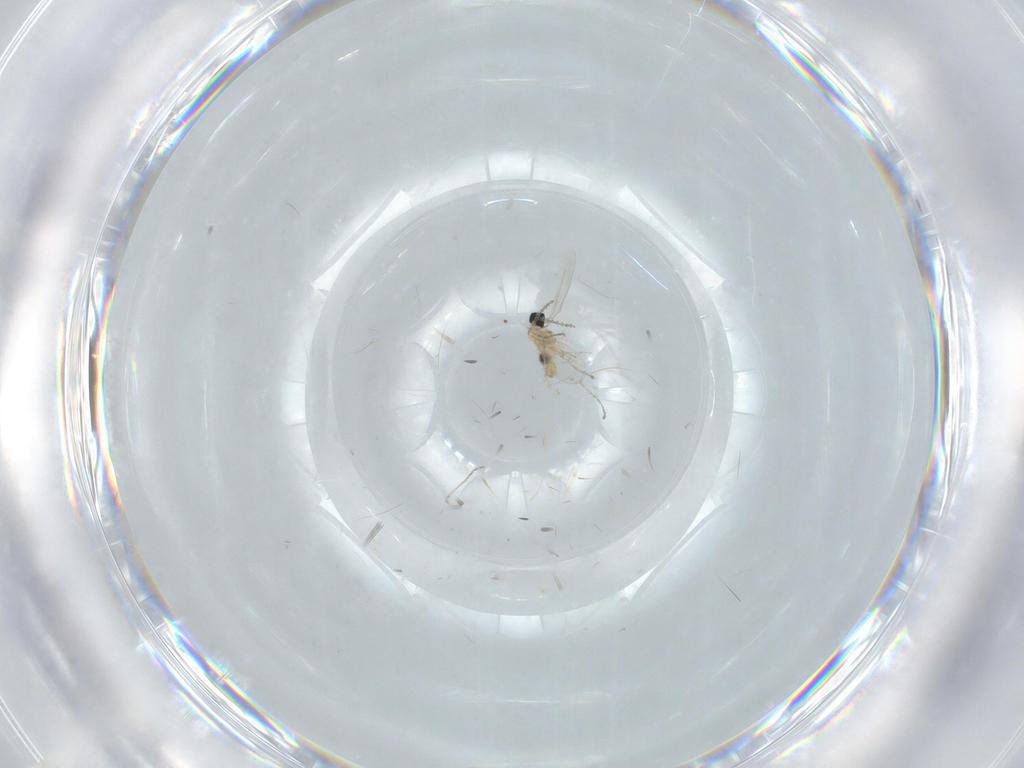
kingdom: Animalia
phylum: Arthropoda
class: Insecta
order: Diptera
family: Cecidomyiidae
